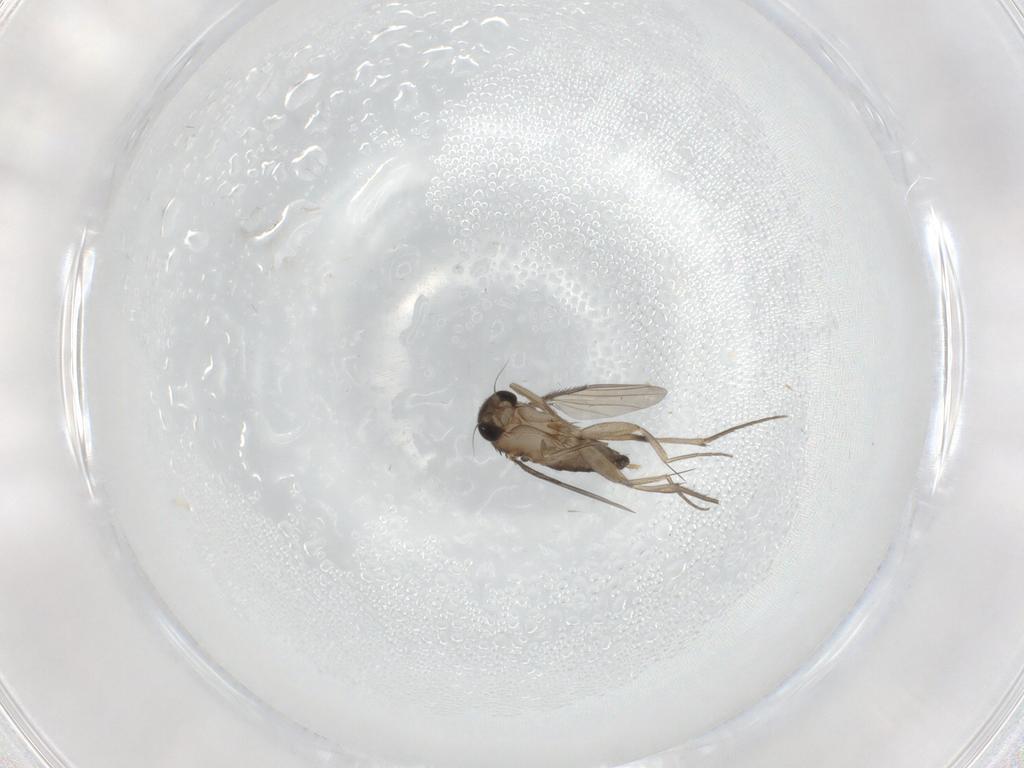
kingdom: Animalia
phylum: Arthropoda
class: Insecta
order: Diptera
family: Phoridae
